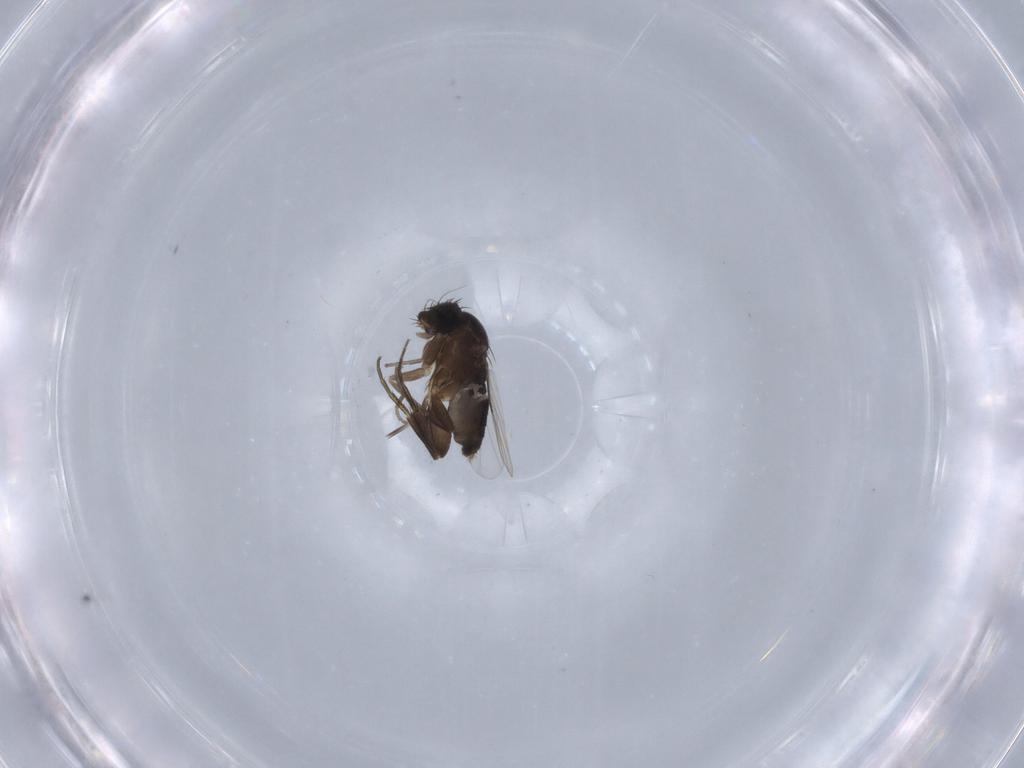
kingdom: Animalia
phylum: Arthropoda
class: Insecta
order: Diptera
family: Phoridae
